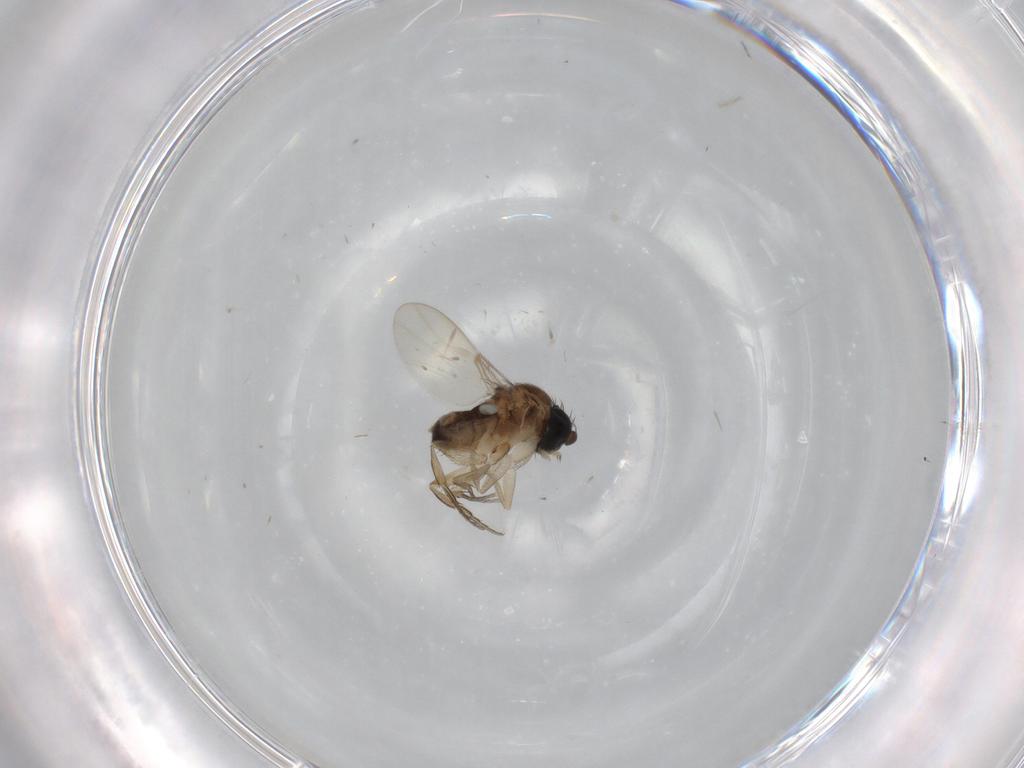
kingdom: Animalia
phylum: Arthropoda
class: Insecta
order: Diptera
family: Phoridae
